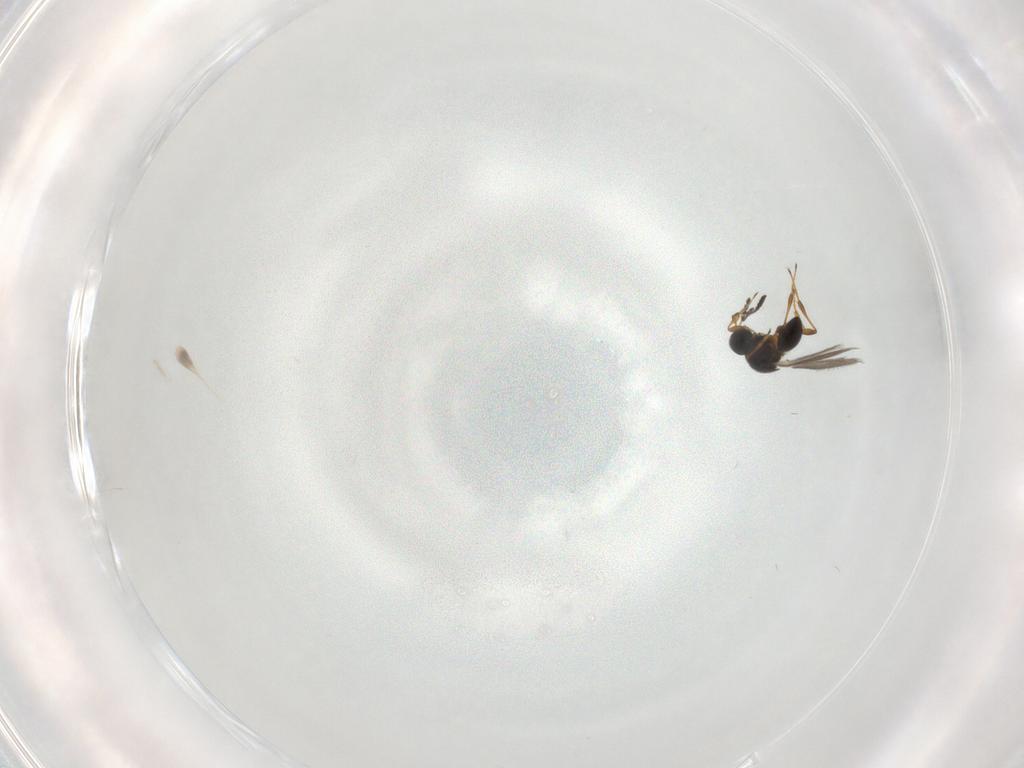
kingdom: Animalia
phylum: Arthropoda
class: Insecta
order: Hymenoptera
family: Platygastridae
